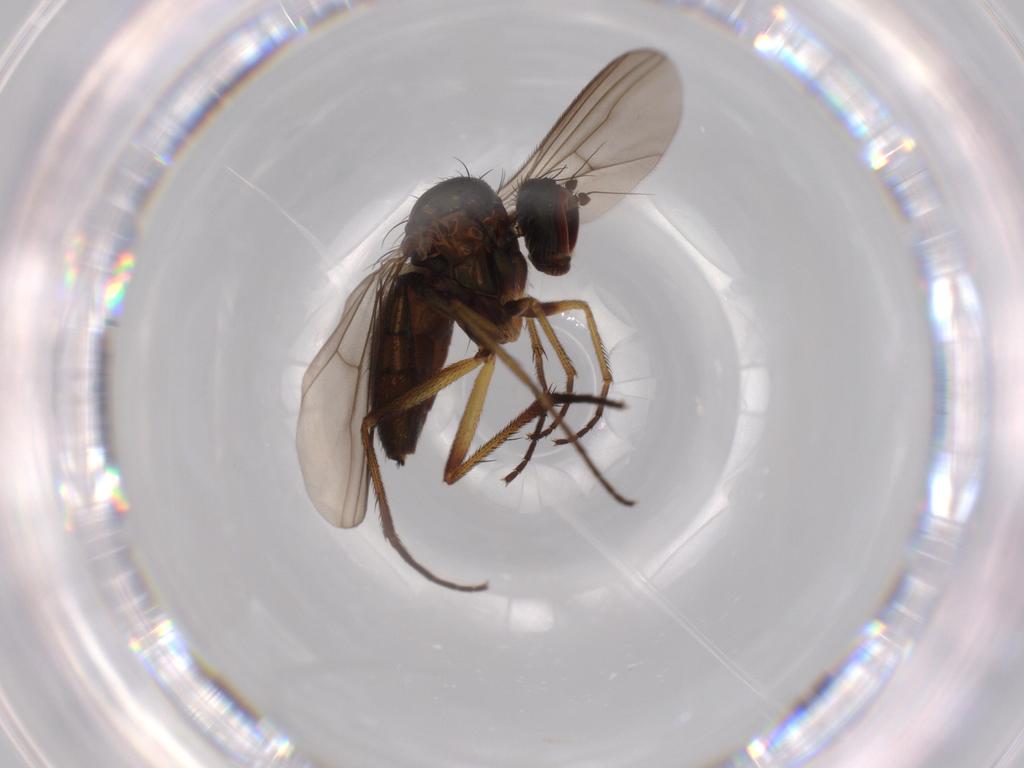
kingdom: Animalia
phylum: Arthropoda
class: Insecta
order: Diptera
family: Dolichopodidae
